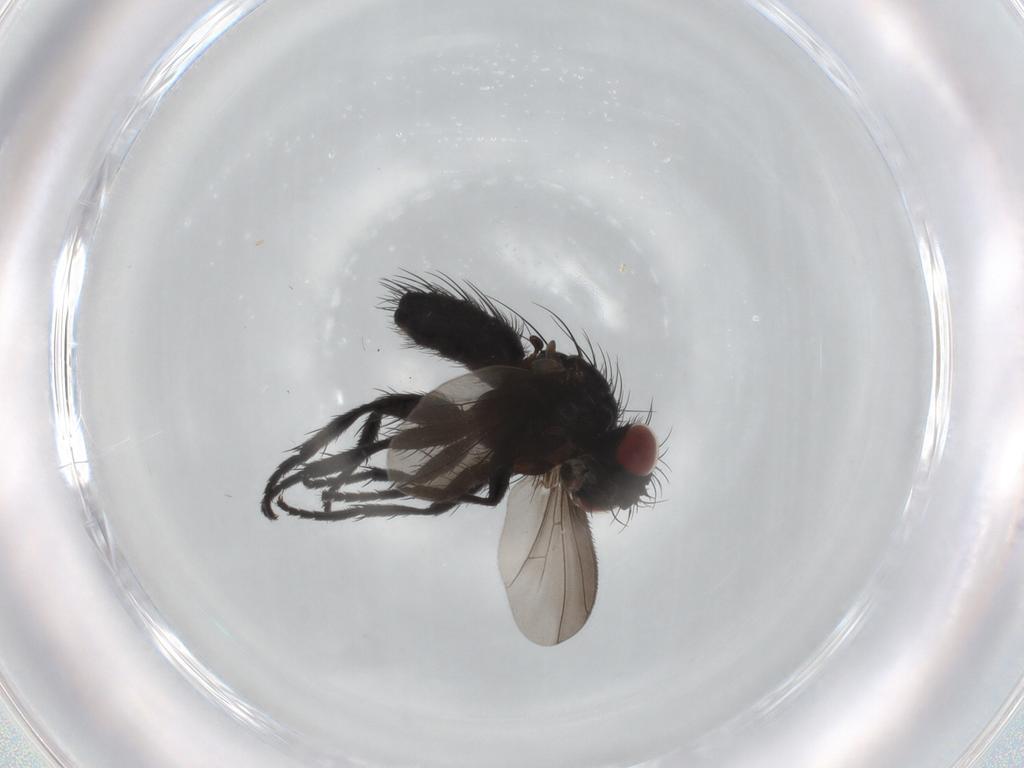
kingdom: Animalia
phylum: Arthropoda
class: Insecta
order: Diptera
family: Tachinidae
